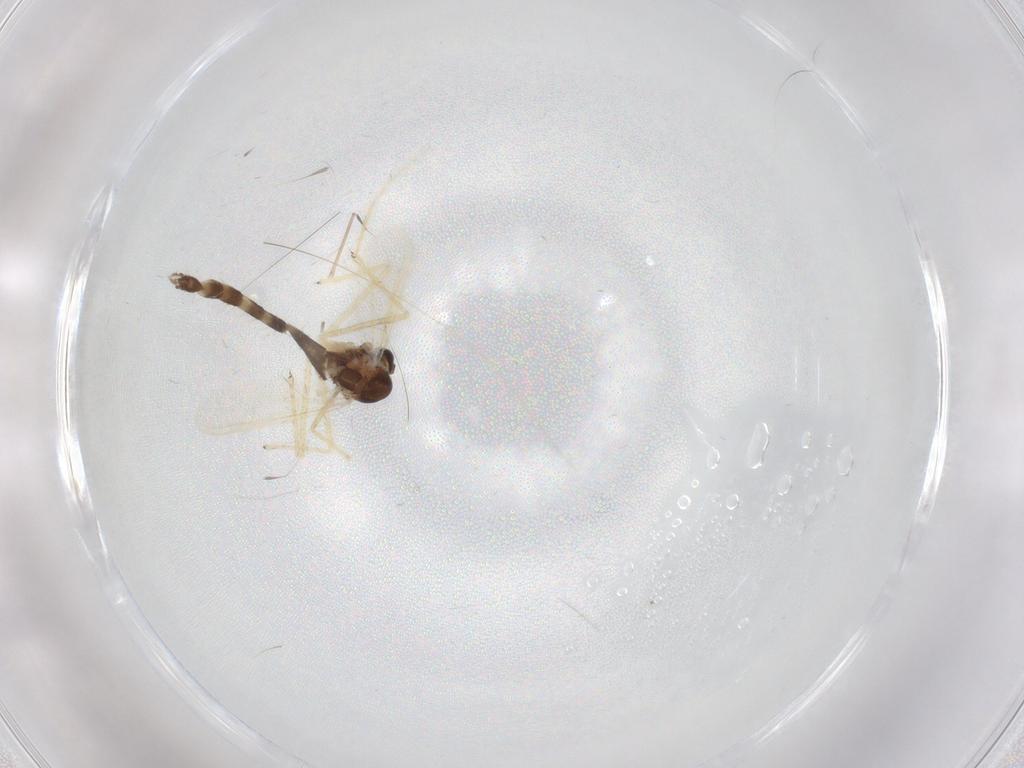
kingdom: Animalia
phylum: Arthropoda
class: Insecta
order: Diptera
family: Chironomidae
